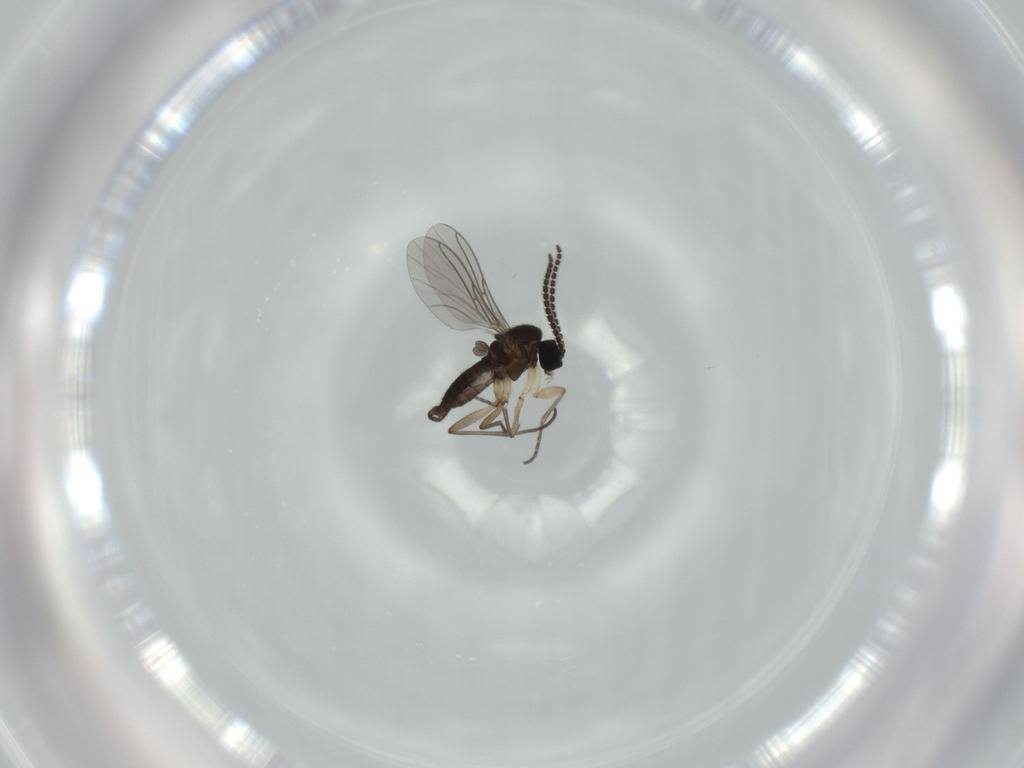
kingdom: Animalia
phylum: Arthropoda
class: Insecta
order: Diptera
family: Sciaridae
